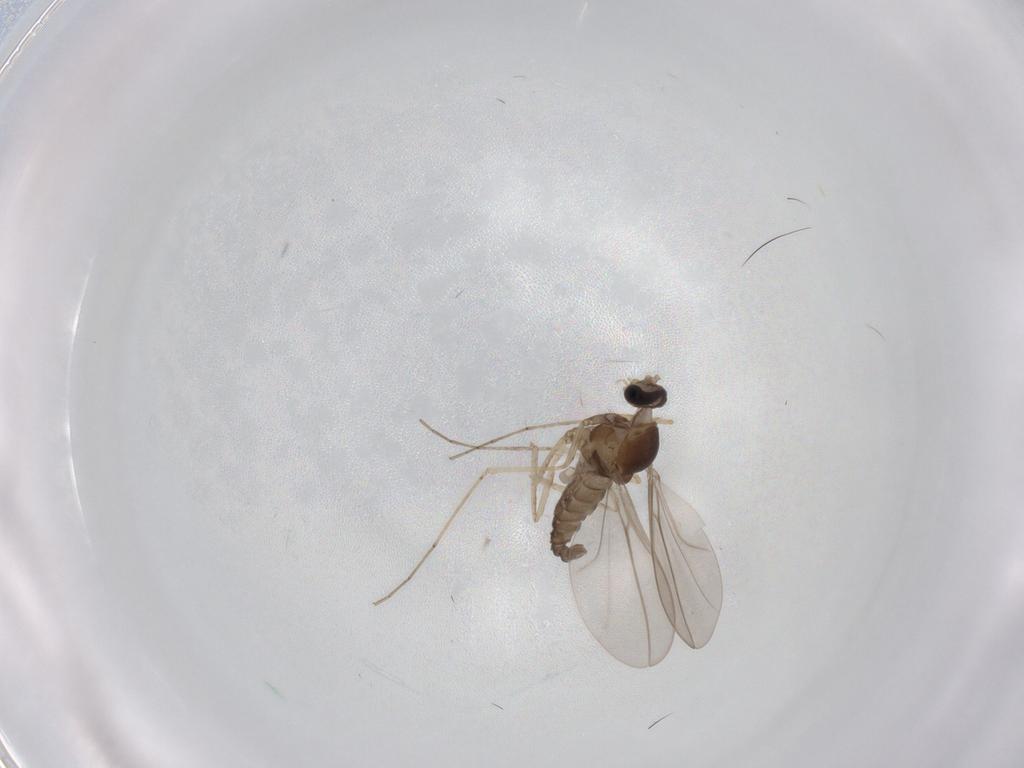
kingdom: Animalia
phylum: Arthropoda
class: Insecta
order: Diptera
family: Cecidomyiidae
